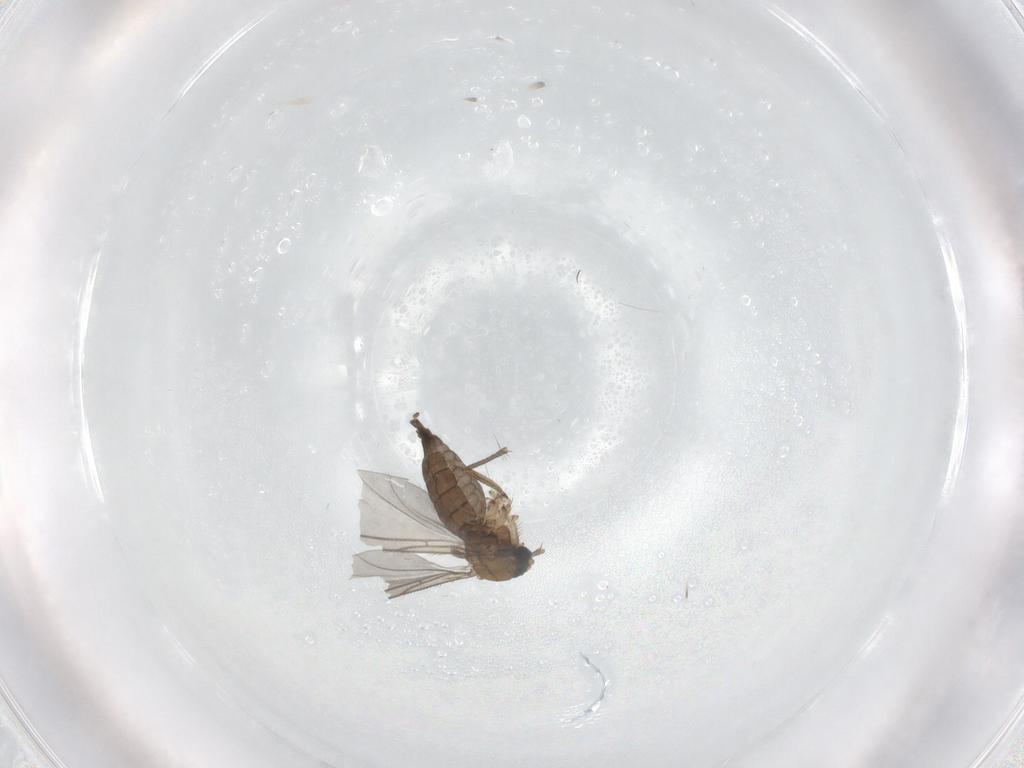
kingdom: Animalia
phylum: Arthropoda
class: Insecta
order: Diptera
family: Sciaridae
